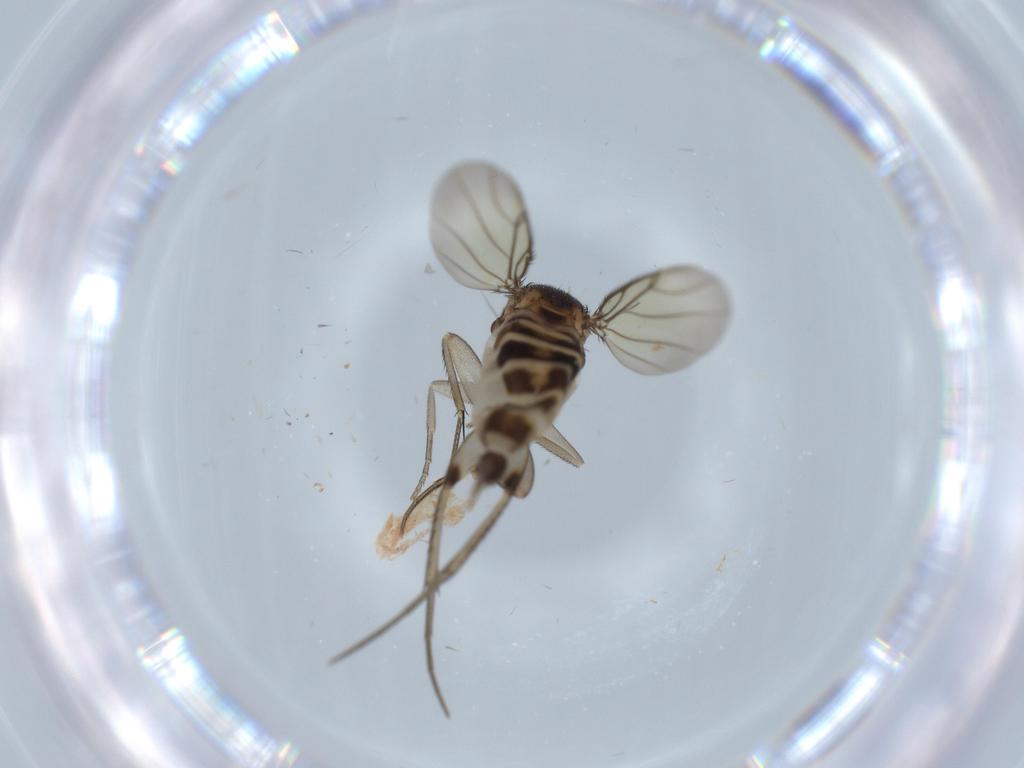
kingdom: Animalia
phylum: Arthropoda
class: Insecta
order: Diptera
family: Phoridae
